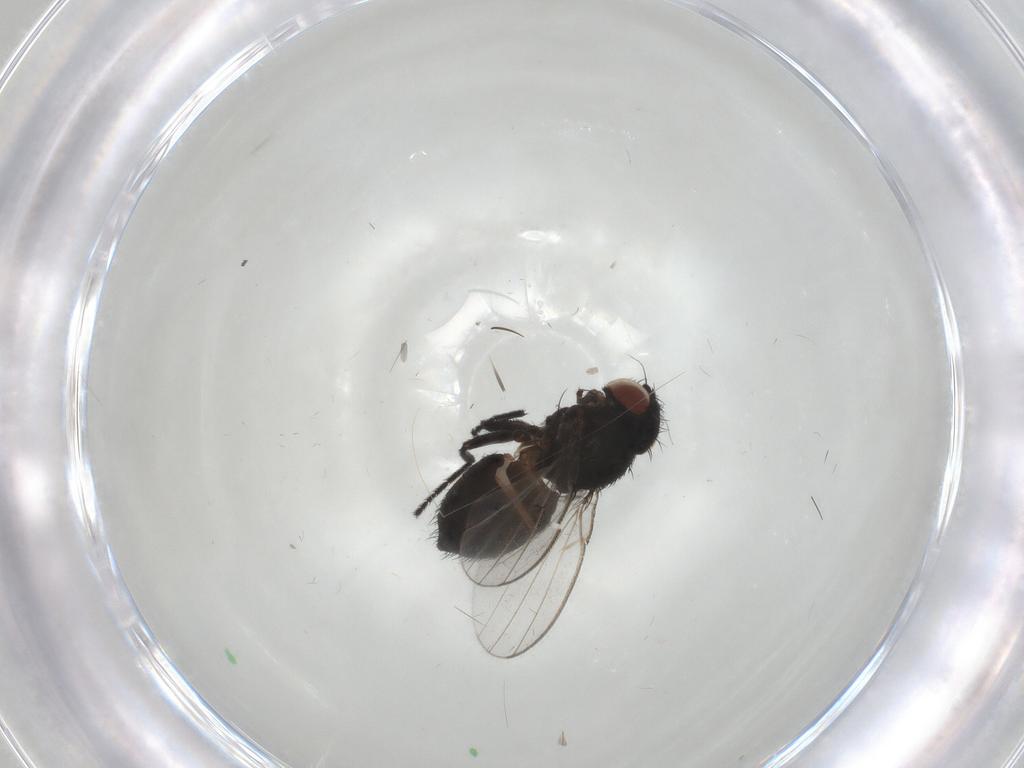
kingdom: Animalia
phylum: Arthropoda
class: Insecta
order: Diptera
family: Milichiidae
